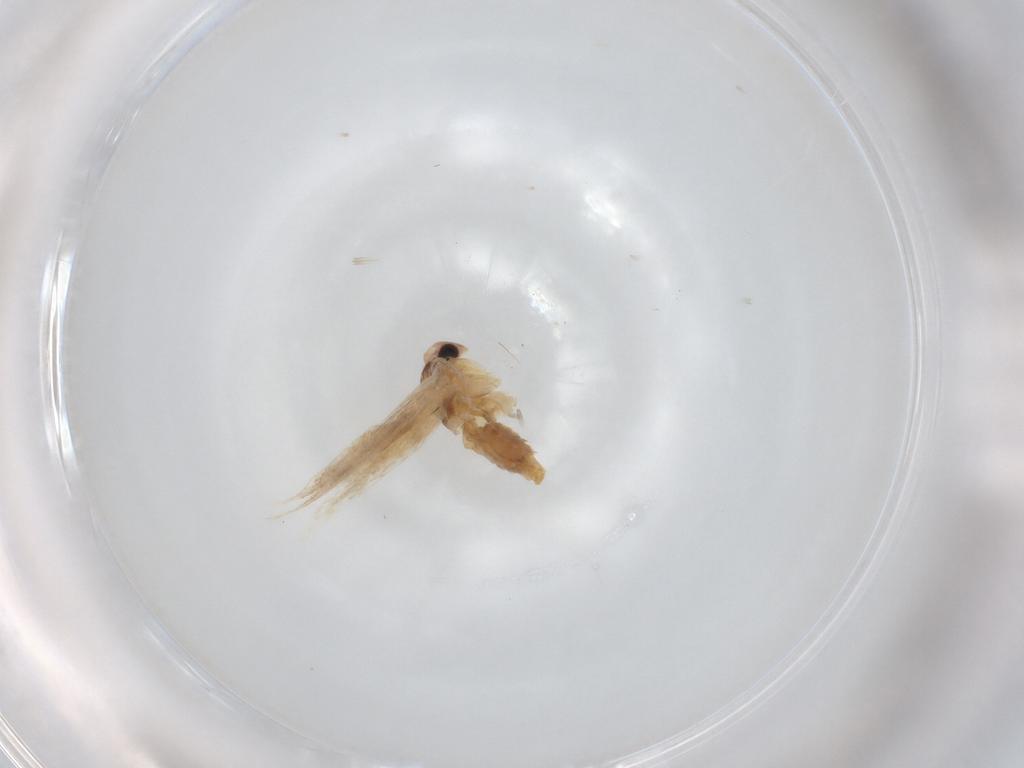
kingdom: Animalia
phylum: Arthropoda
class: Insecta
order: Lepidoptera
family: Bucculatricidae
